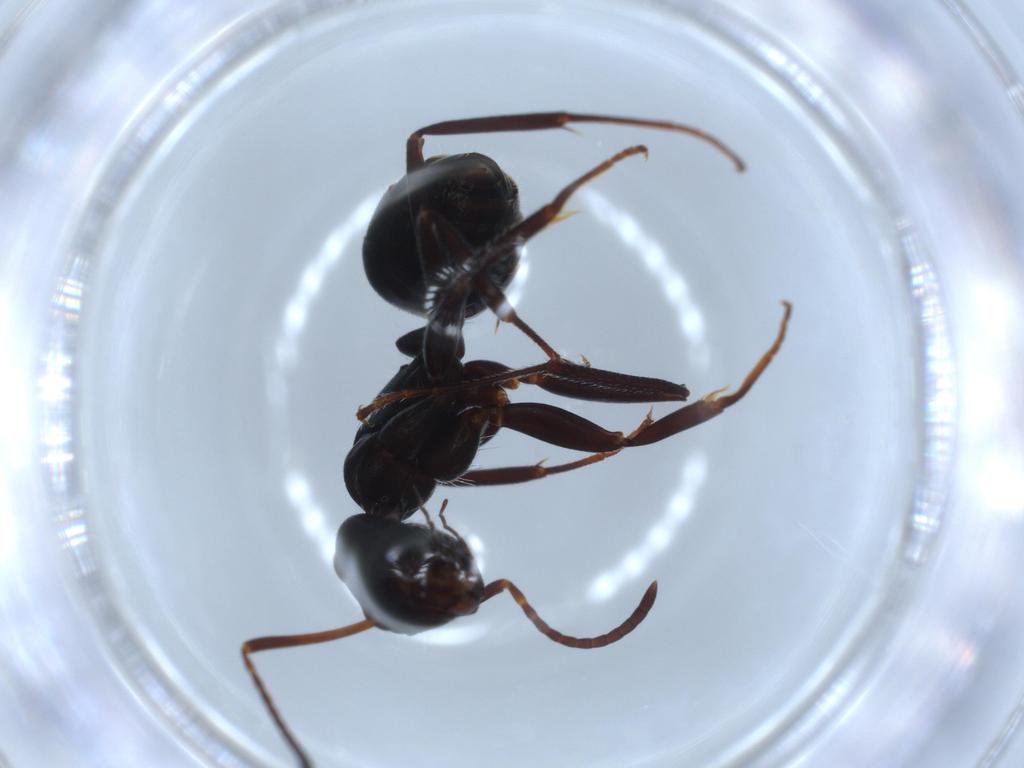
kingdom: Animalia
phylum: Arthropoda
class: Insecta
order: Hymenoptera
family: Formicidae
